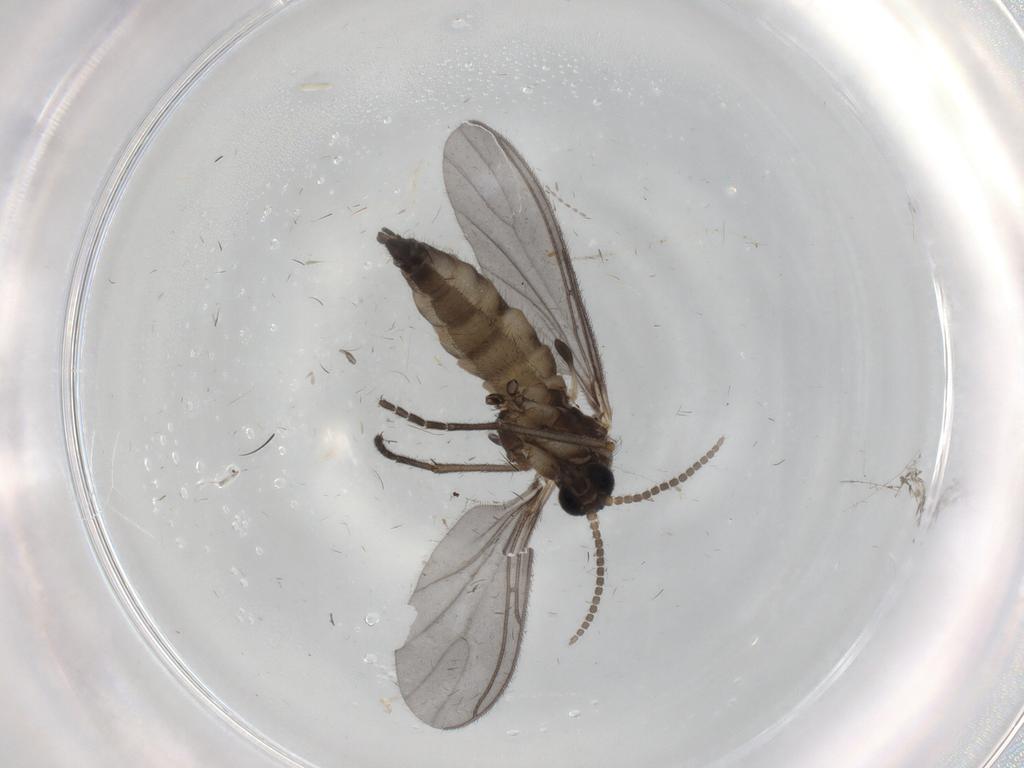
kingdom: Animalia
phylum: Arthropoda
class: Insecta
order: Diptera
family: Sciaridae
